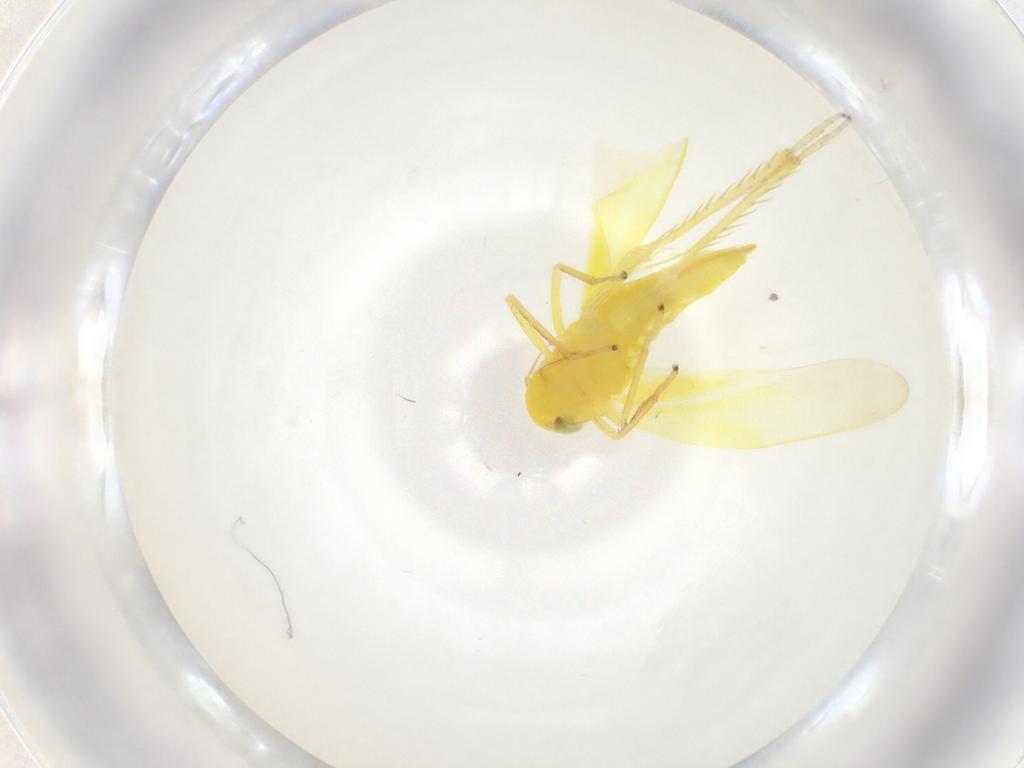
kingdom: Animalia
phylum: Arthropoda
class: Insecta
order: Hemiptera
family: Cicadellidae
